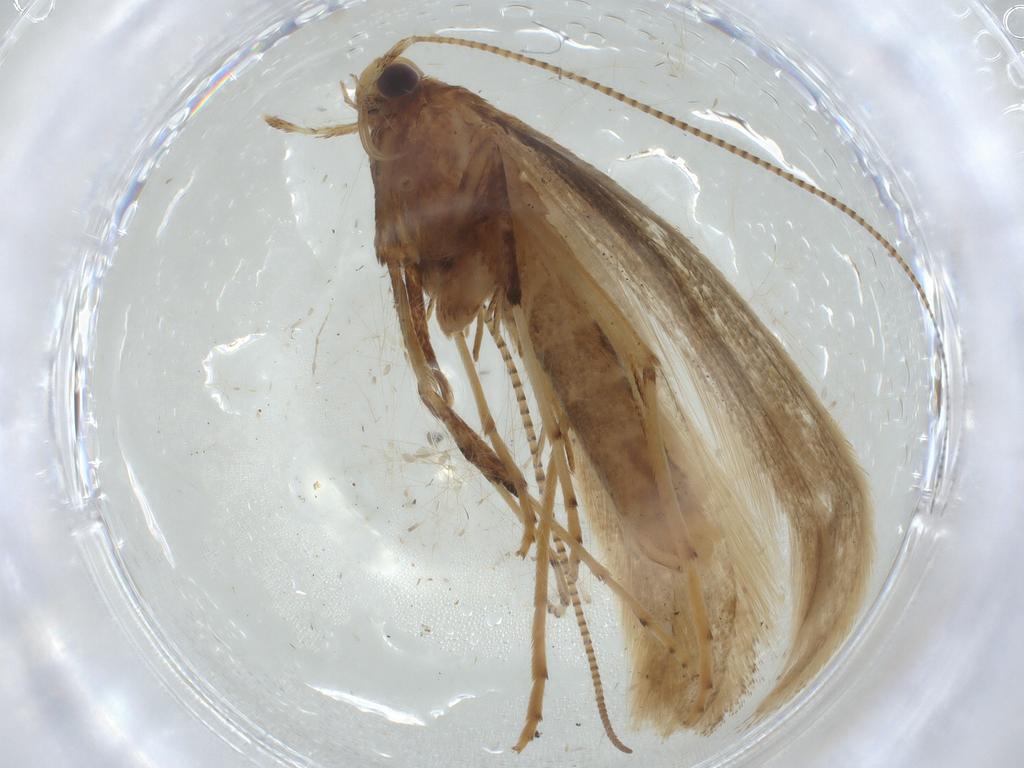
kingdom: Animalia
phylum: Arthropoda
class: Insecta
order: Lepidoptera
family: Gracillariidae
